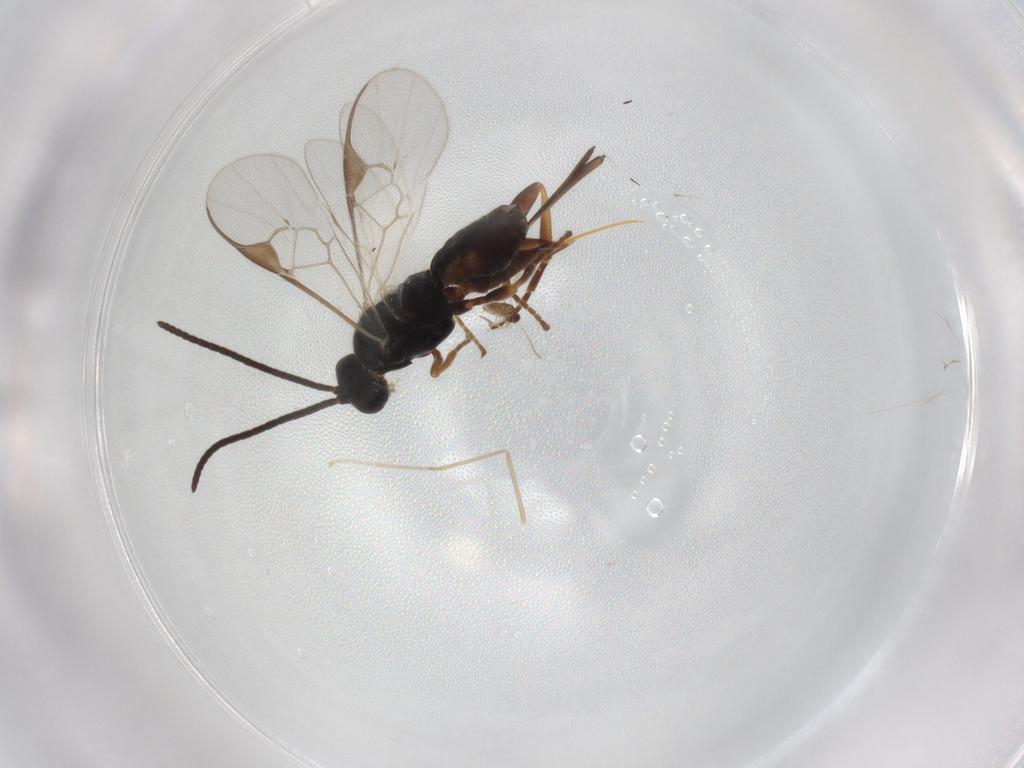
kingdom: Animalia
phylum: Arthropoda
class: Insecta
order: Hymenoptera
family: Braconidae
